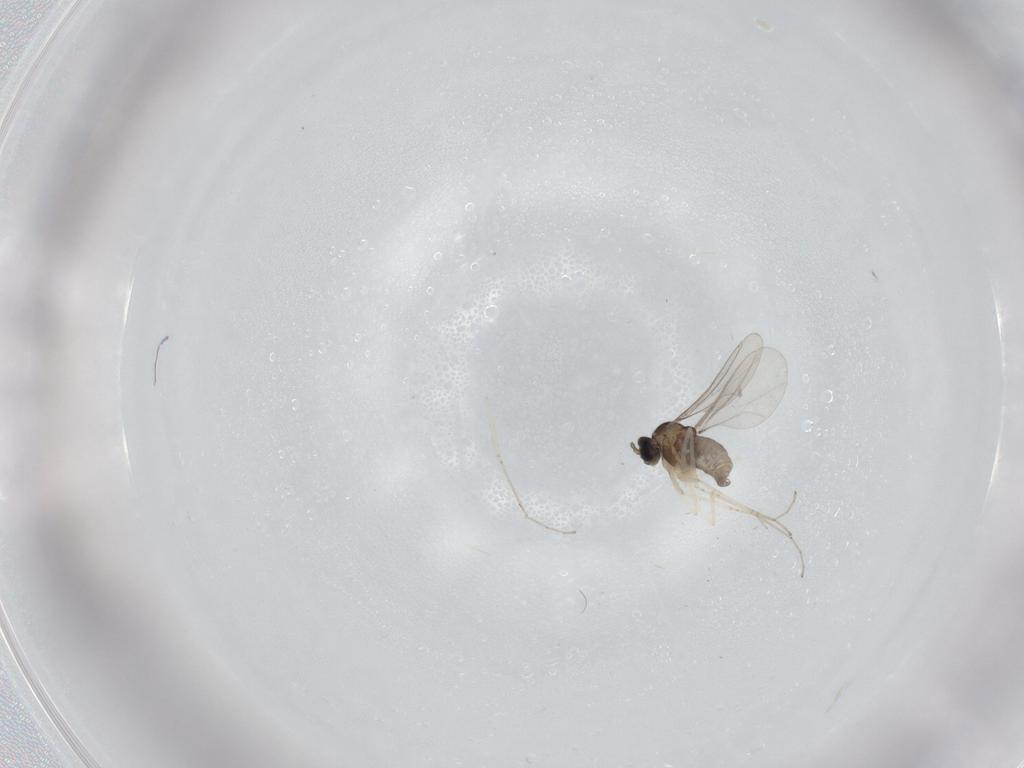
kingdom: Animalia
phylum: Arthropoda
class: Insecta
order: Diptera
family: Cecidomyiidae
